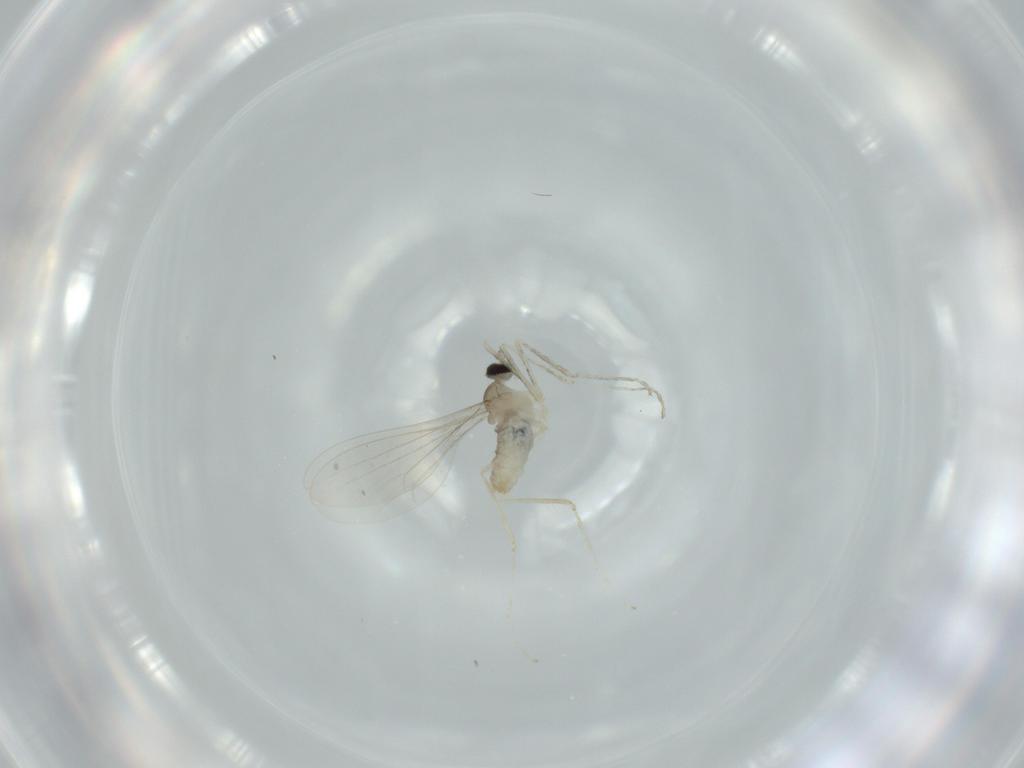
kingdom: Animalia
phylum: Arthropoda
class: Insecta
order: Diptera
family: Cecidomyiidae
